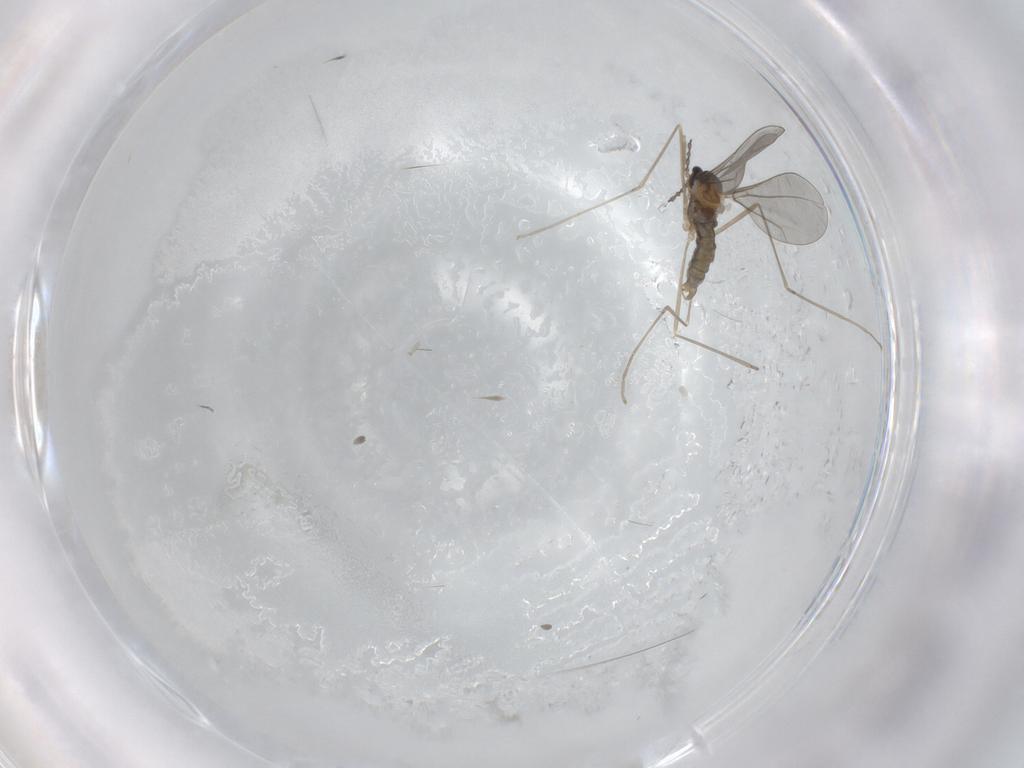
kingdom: Animalia
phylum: Arthropoda
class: Insecta
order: Diptera
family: Cecidomyiidae
